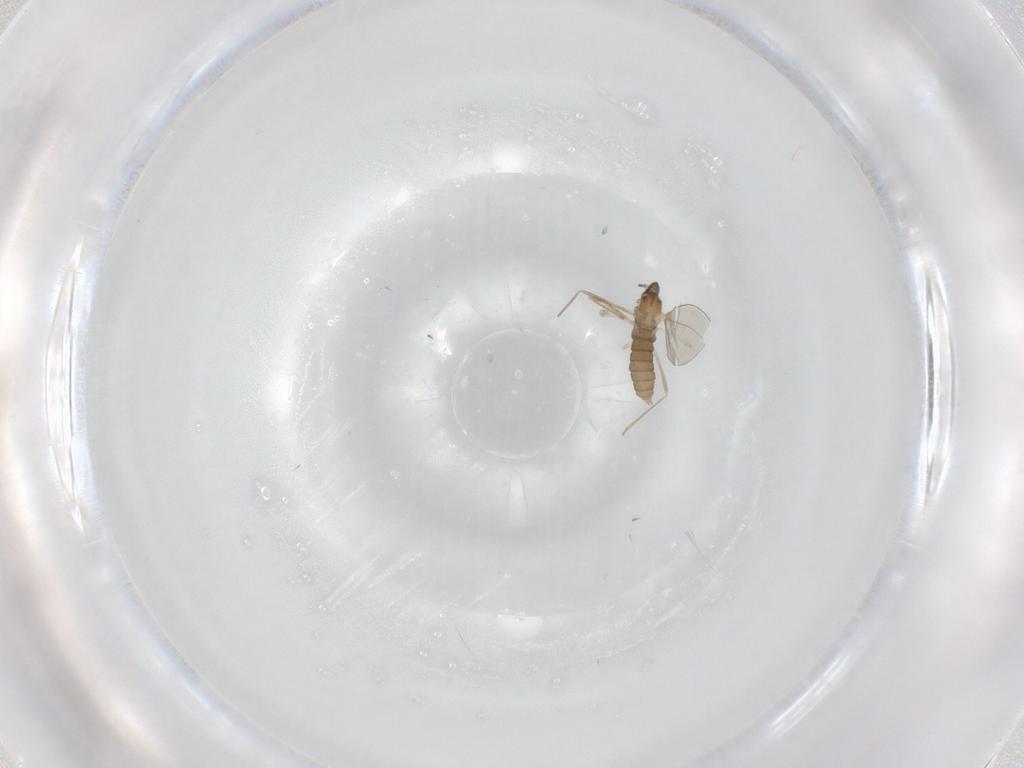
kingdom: Animalia
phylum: Arthropoda
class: Insecta
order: Diptera
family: Cecidomyiidae
